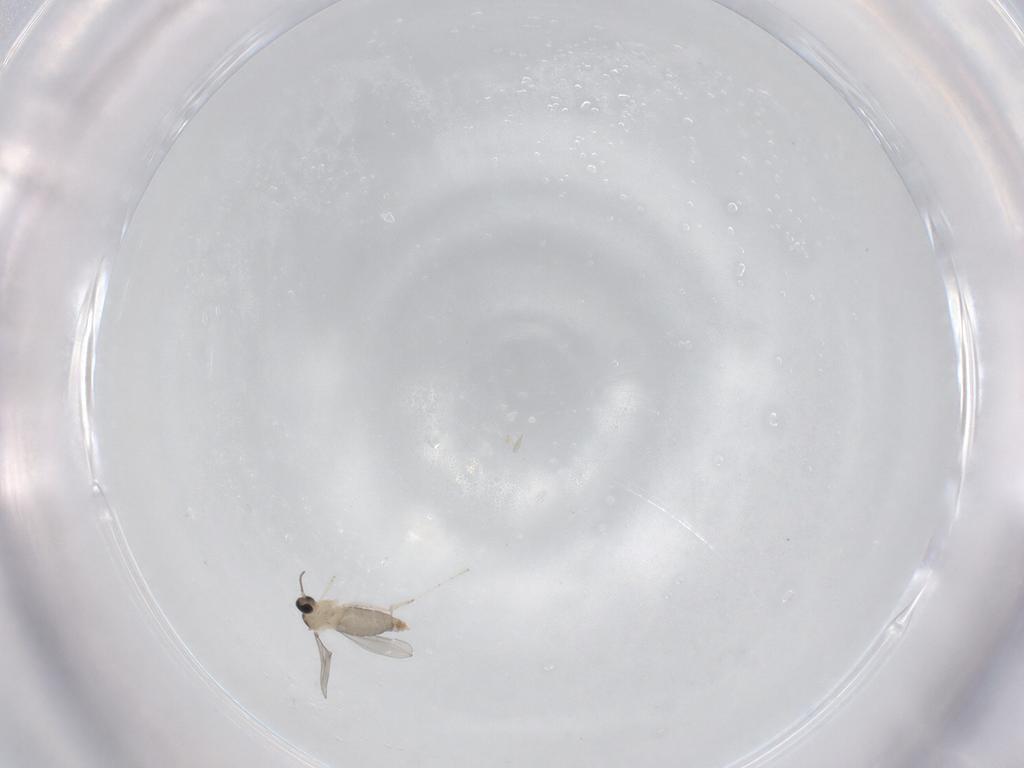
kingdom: Animalia
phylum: Arthropoda
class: Insecta
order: Diptera
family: Cecidomyiidae
